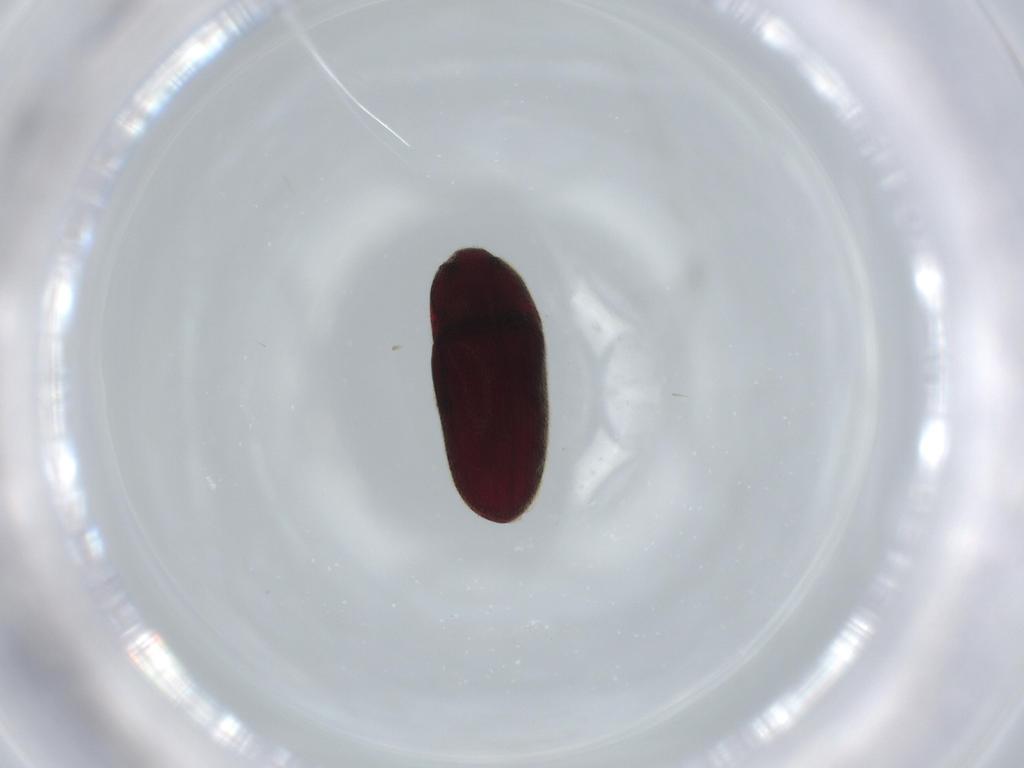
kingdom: Animalia
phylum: Arthropoda
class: Insecta
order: Coleoptera
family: Throscidae
